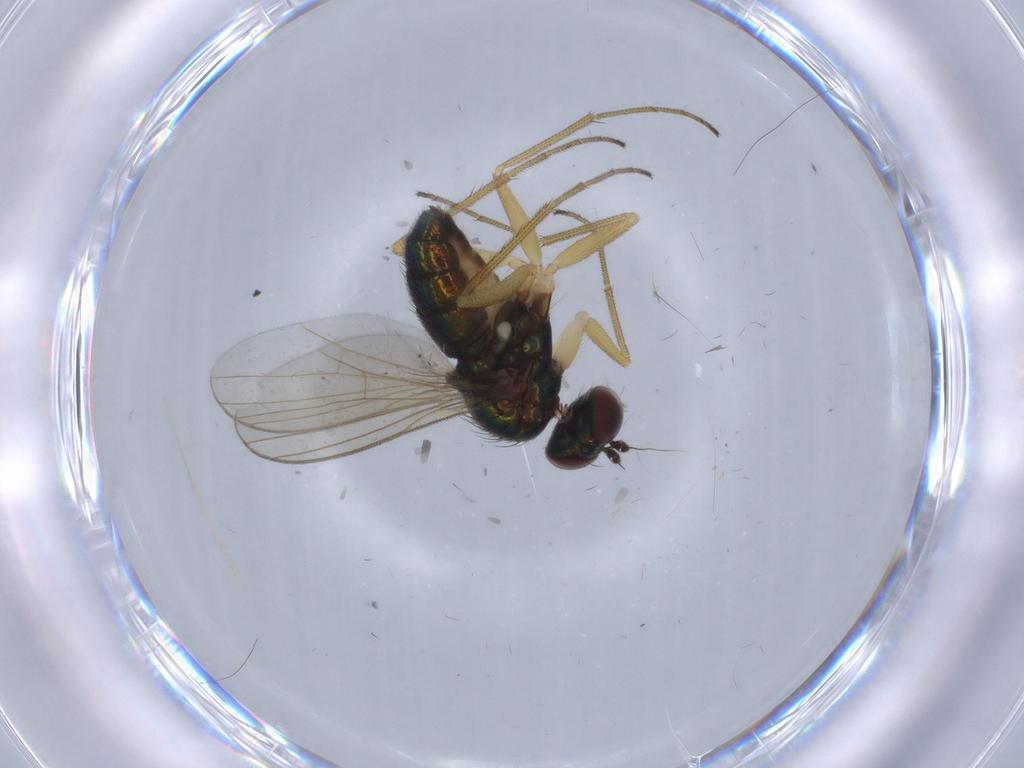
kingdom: Animalia
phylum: Arthropoda
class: Insecta
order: Diptera
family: Dolichopodidae
